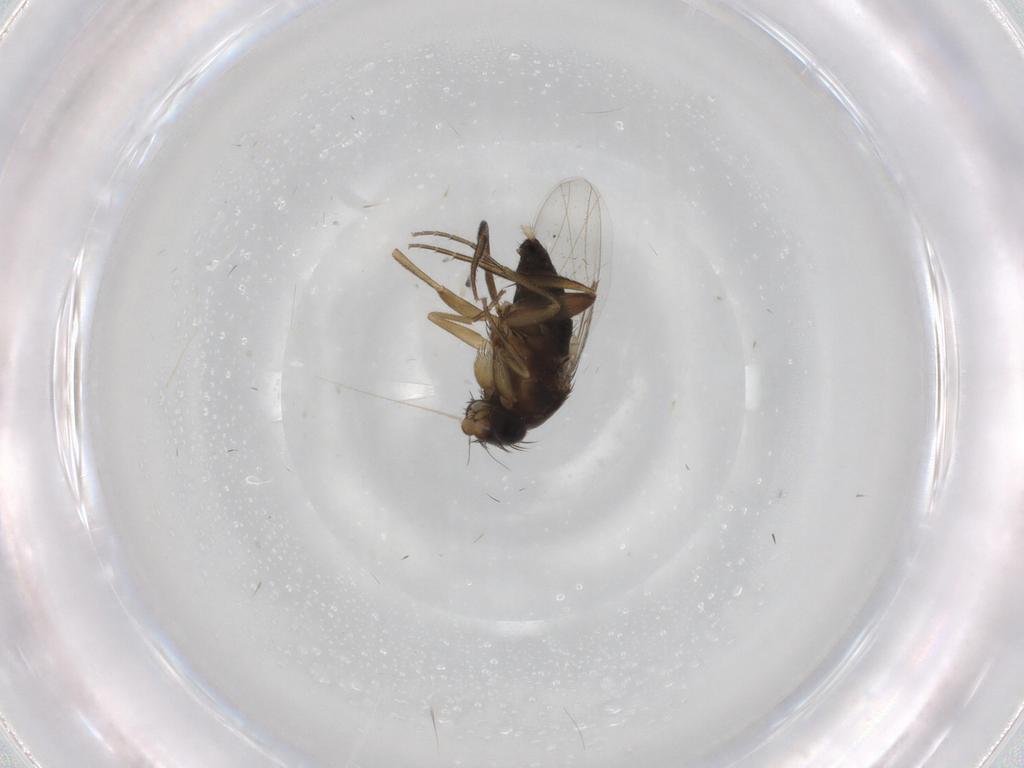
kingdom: Animalia
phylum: Arthropoda
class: Insecta
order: Diptera
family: Phoridae
